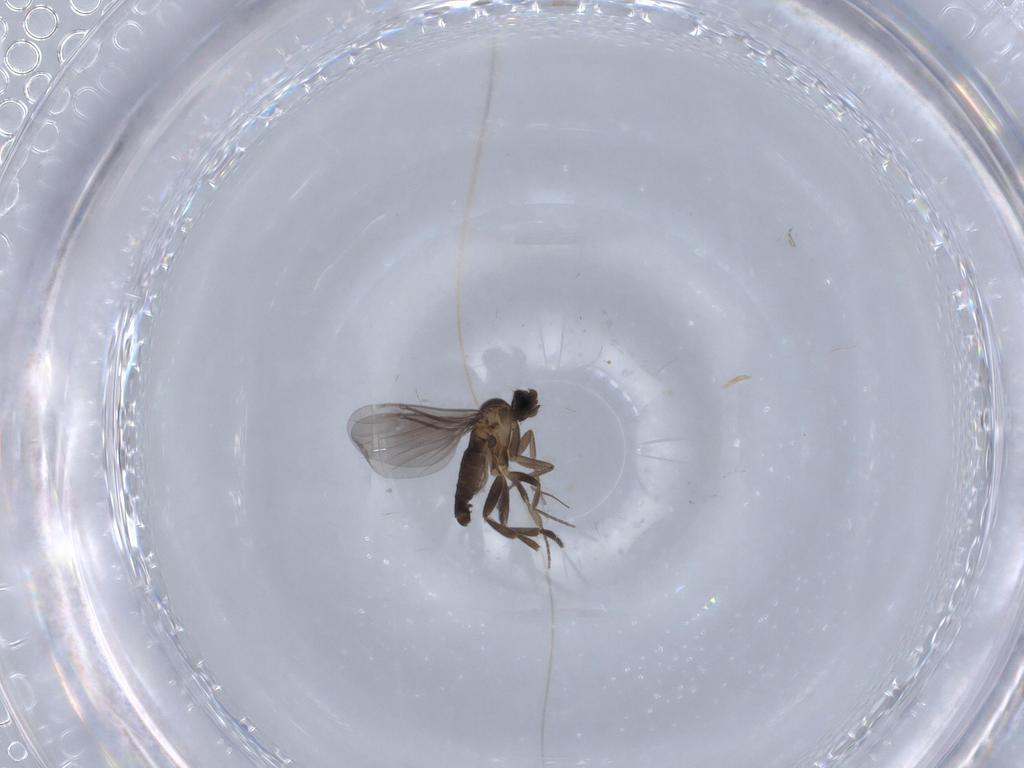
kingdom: Animalia
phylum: Arthropoda
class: Insecta
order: Diptera
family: Phoridae
